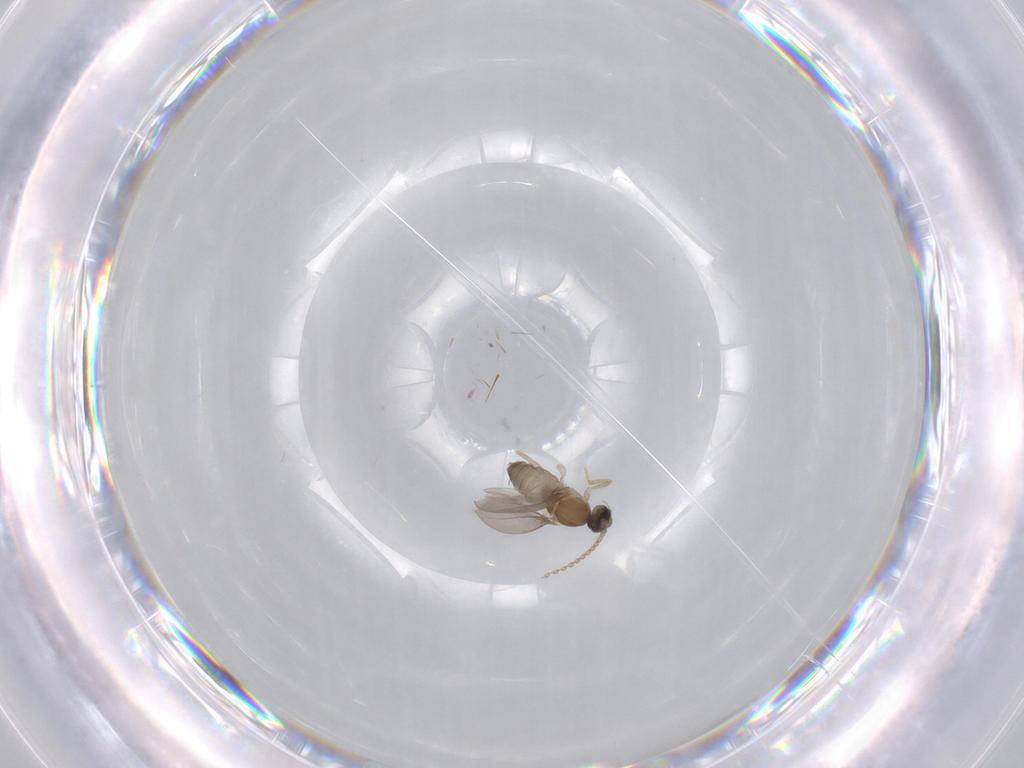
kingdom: Animalia
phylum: Arthropoda
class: Insecta
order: Diptera
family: Cecidomyiidae
